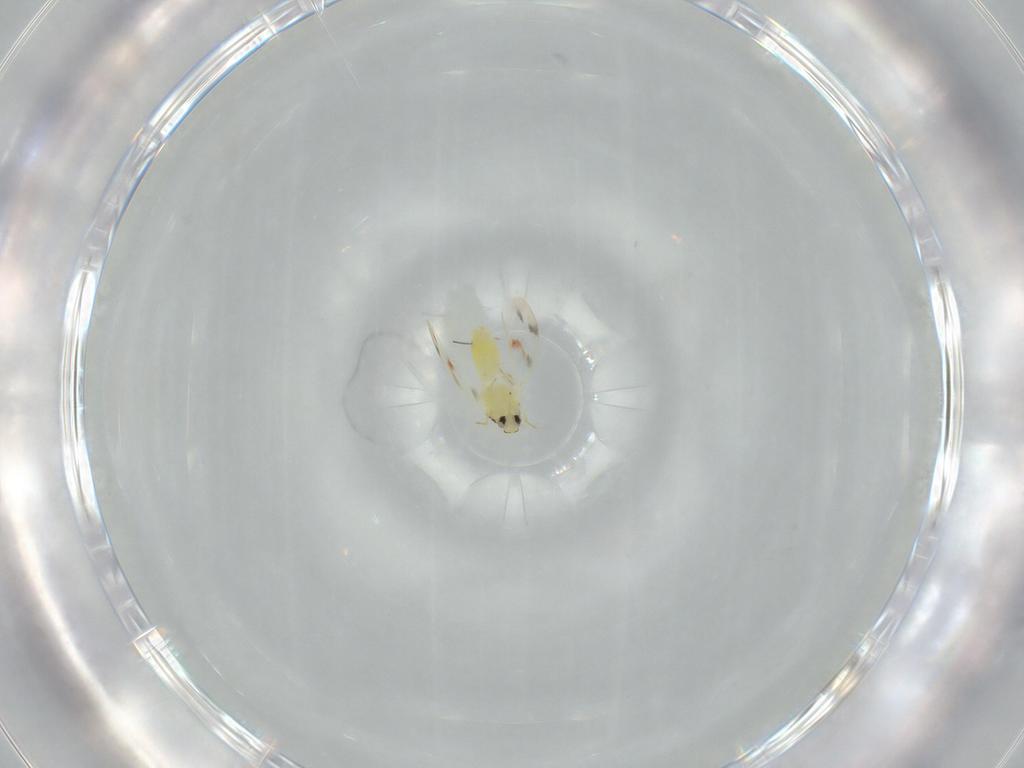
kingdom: Animalia
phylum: Arthropoda
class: Insecta
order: Hemiptera
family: Aleyrodidae
